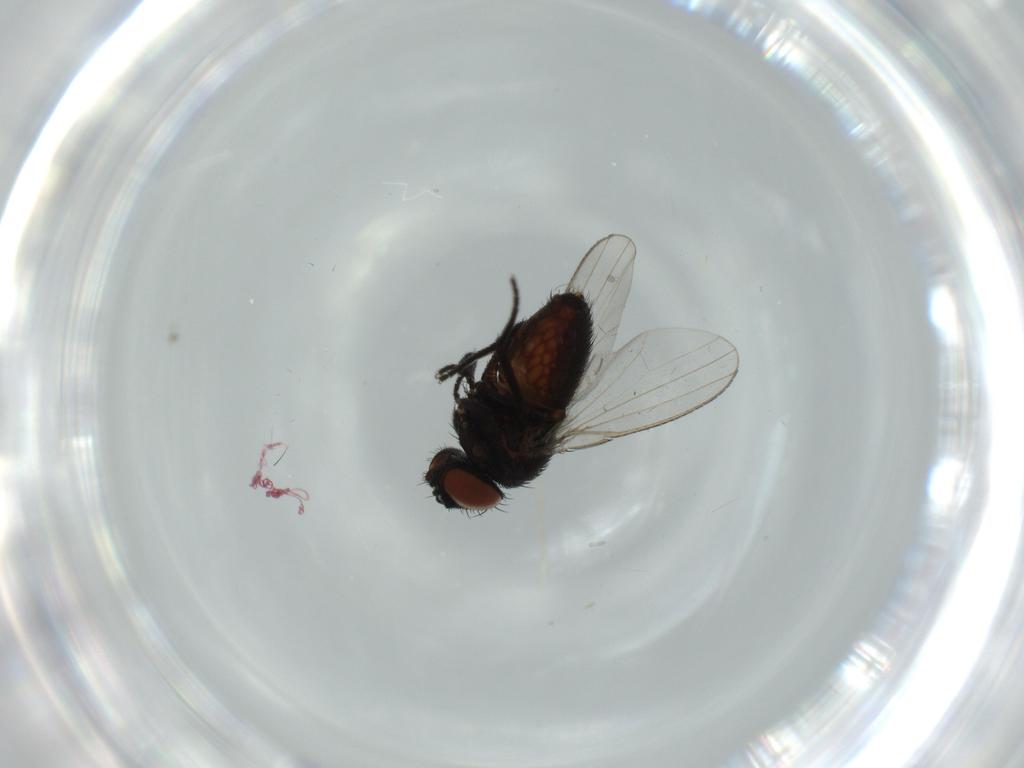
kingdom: Animalia
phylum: Arthropoda
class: Insecta
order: Diptera
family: Milichiidae
